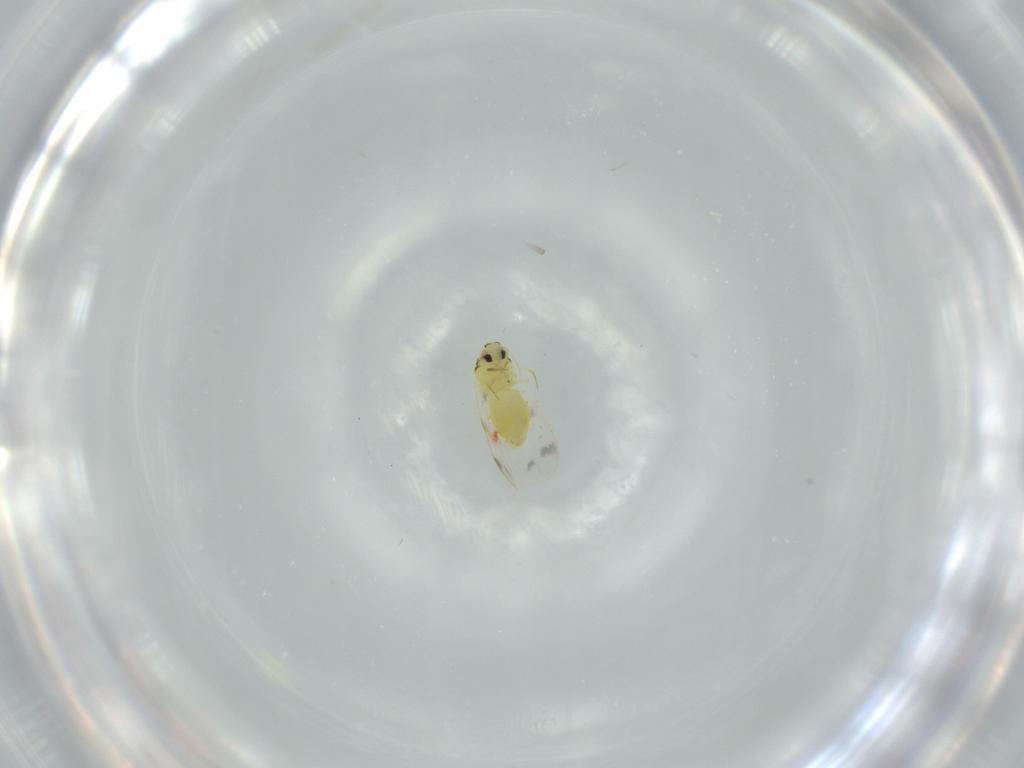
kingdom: Animalia
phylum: Arthropoda
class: Insecta
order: Hemiptera
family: Aleyrodidae
